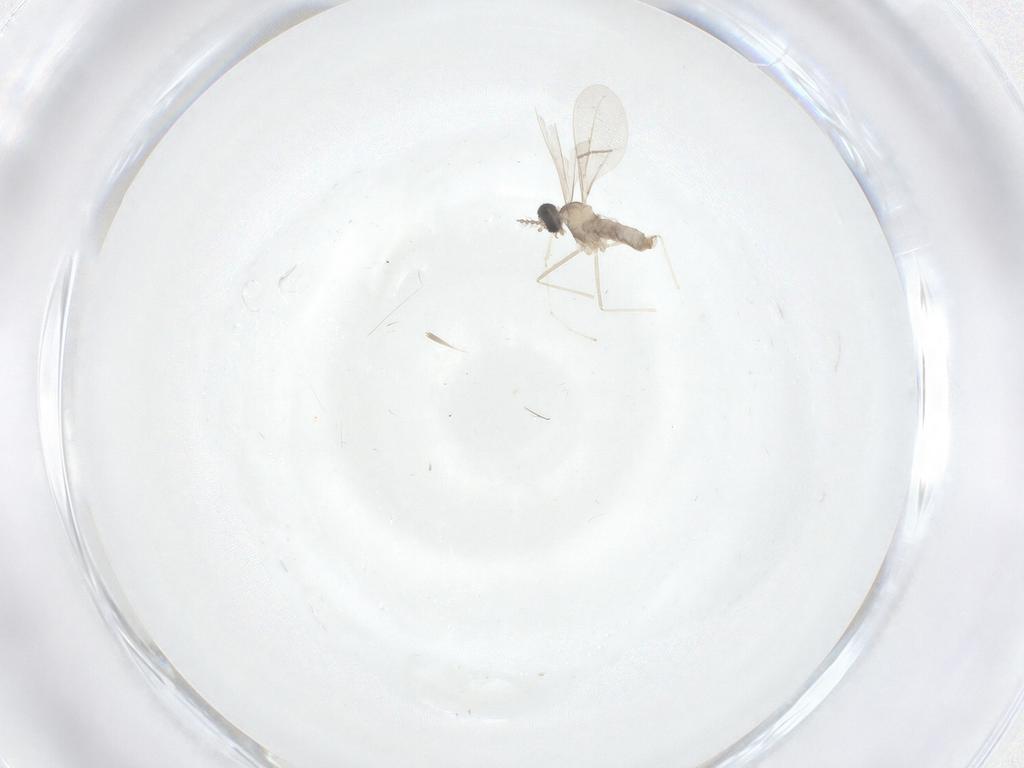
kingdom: Animalia
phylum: Arthropoda
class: Insecta
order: Diptera
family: Cecidomyiidae
